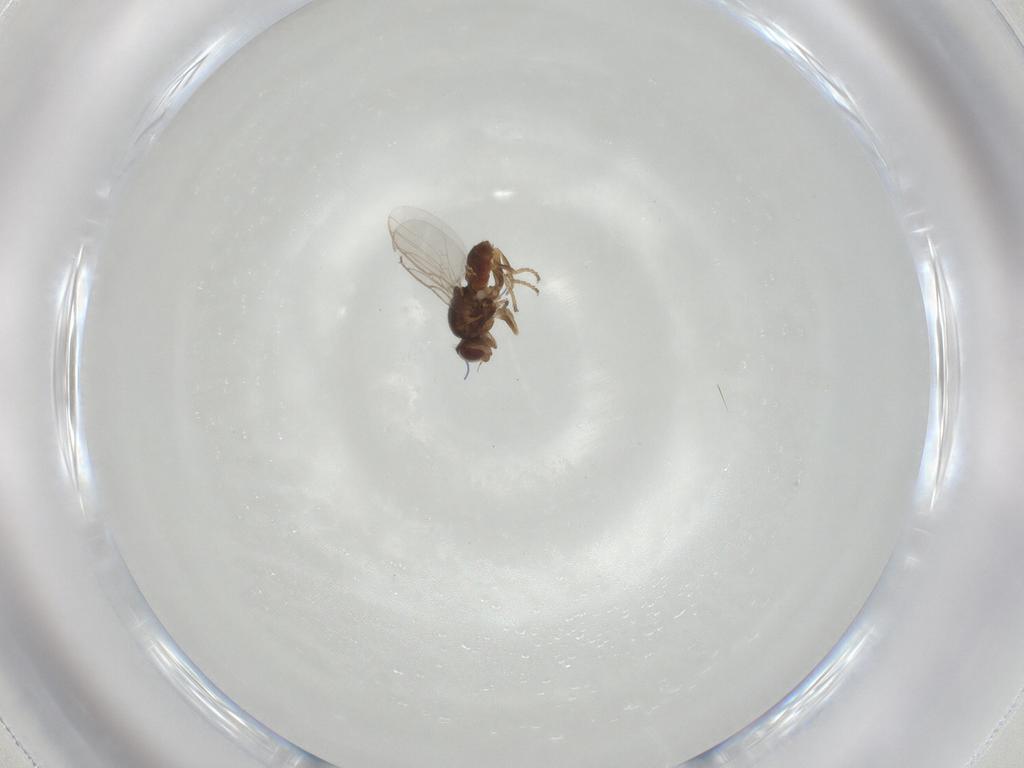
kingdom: Animalia
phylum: Arthropoda
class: Insecta
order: Diptera
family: Chloropidae
